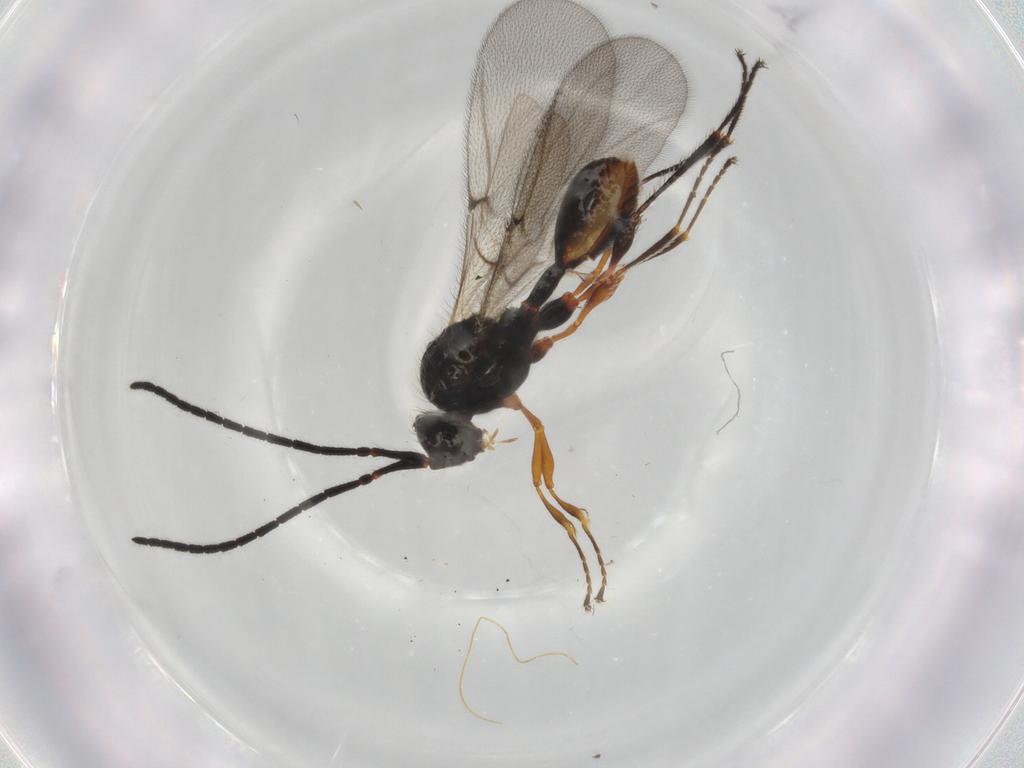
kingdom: Animalia
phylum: Arthropoda
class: Insecta
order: Hymenoptera
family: Diapriidae
